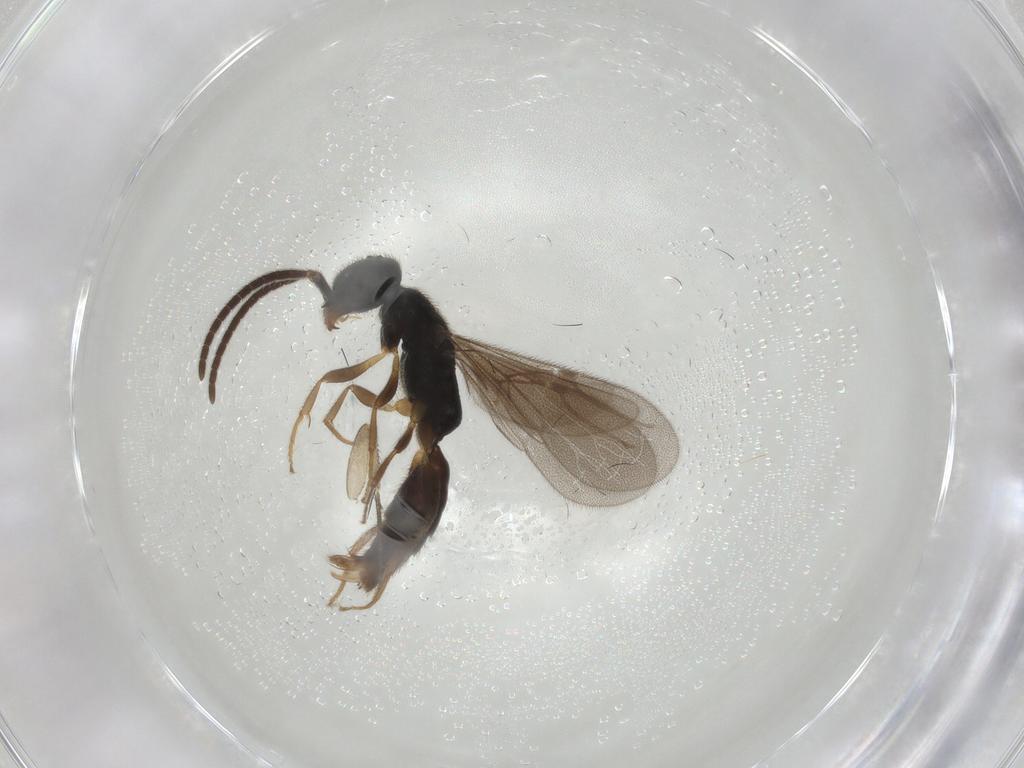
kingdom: Animalia
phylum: Arthropoda
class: Insecta
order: Diptera
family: Phoridae
